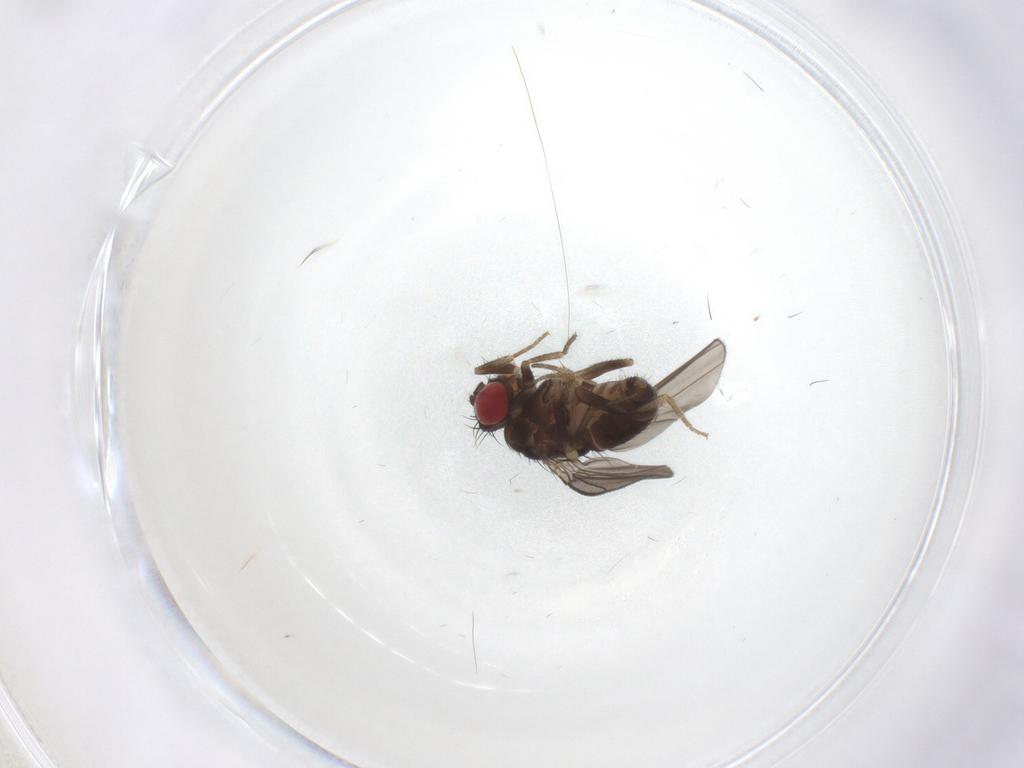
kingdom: Animalia
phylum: Arthropoda
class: Insecta
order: Diptera
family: Drosophilidae
